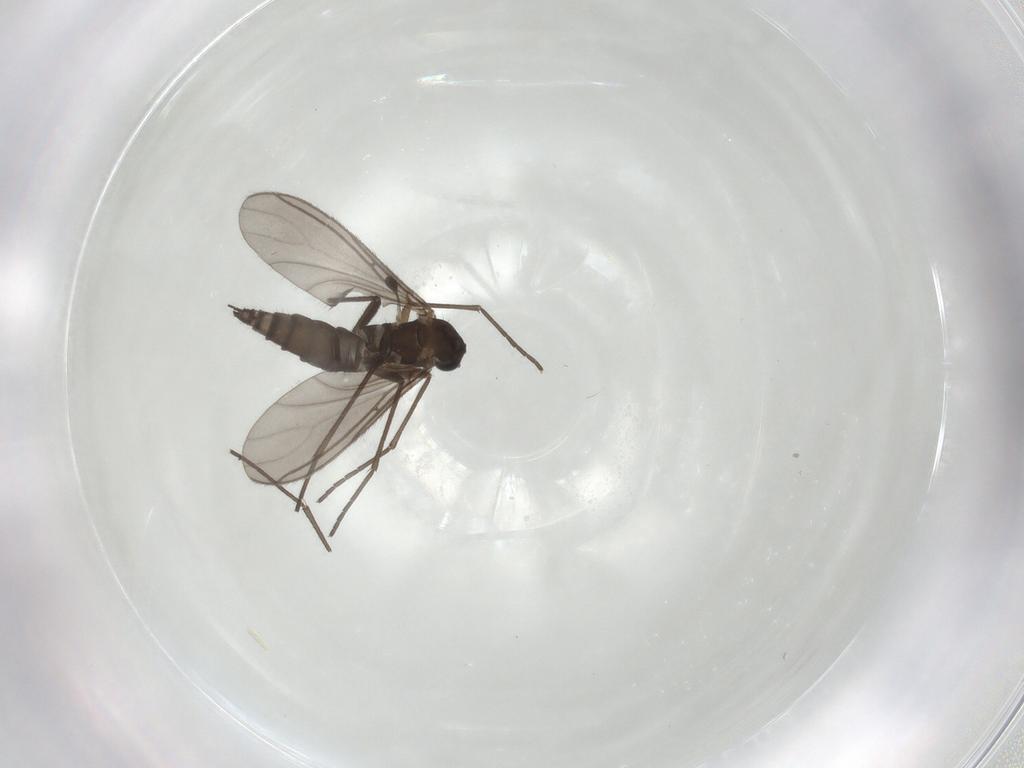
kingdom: Animalia
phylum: Arthropoda
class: Insecta
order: Diptera
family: Sciaridae
